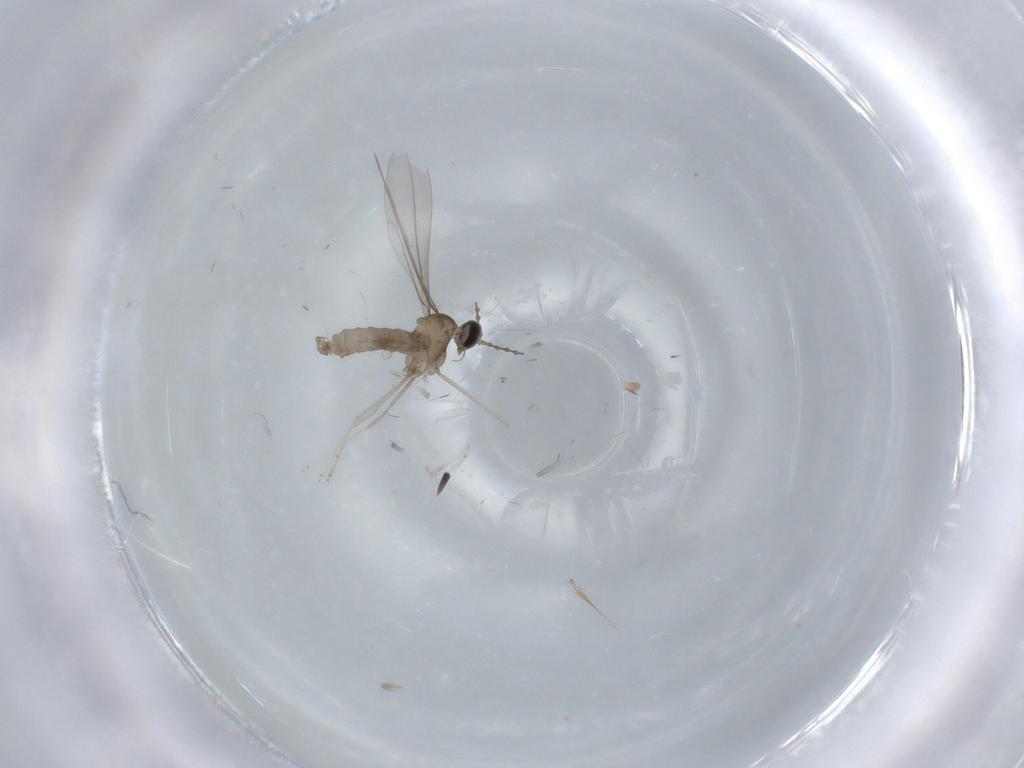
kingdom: Animalia
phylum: Arthropoda
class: Insecta
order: Diptera
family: Cecidomyiidae
